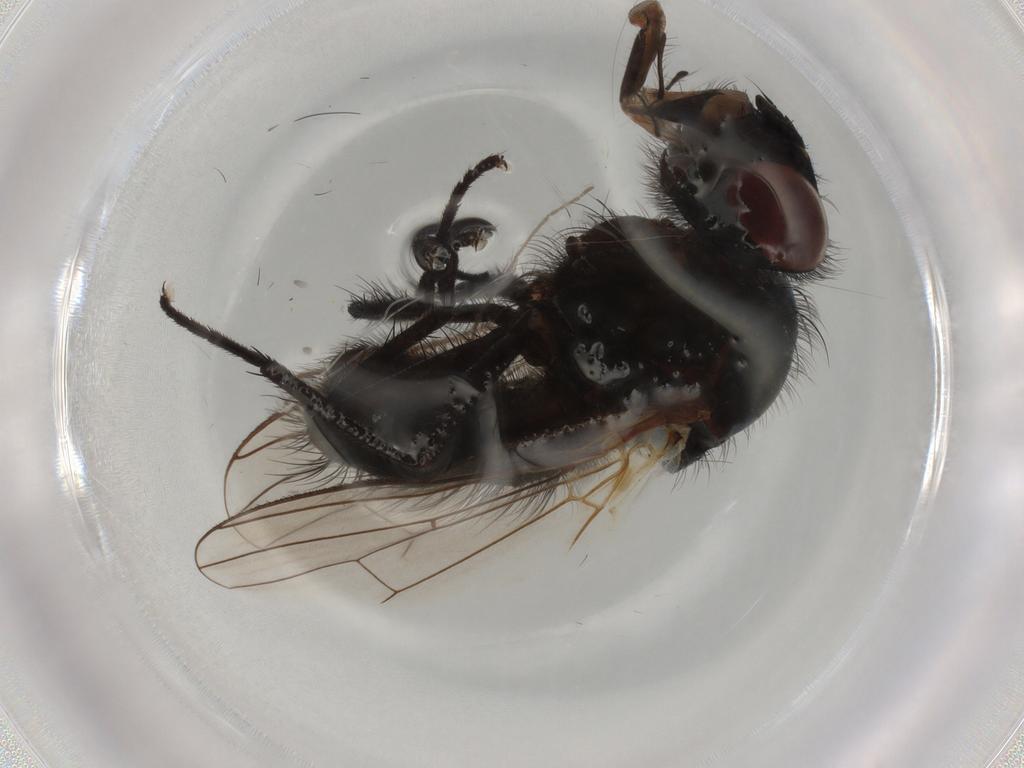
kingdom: Animalia
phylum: Arthropoda
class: Insecta
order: Diptera
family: Anthomyiidae
